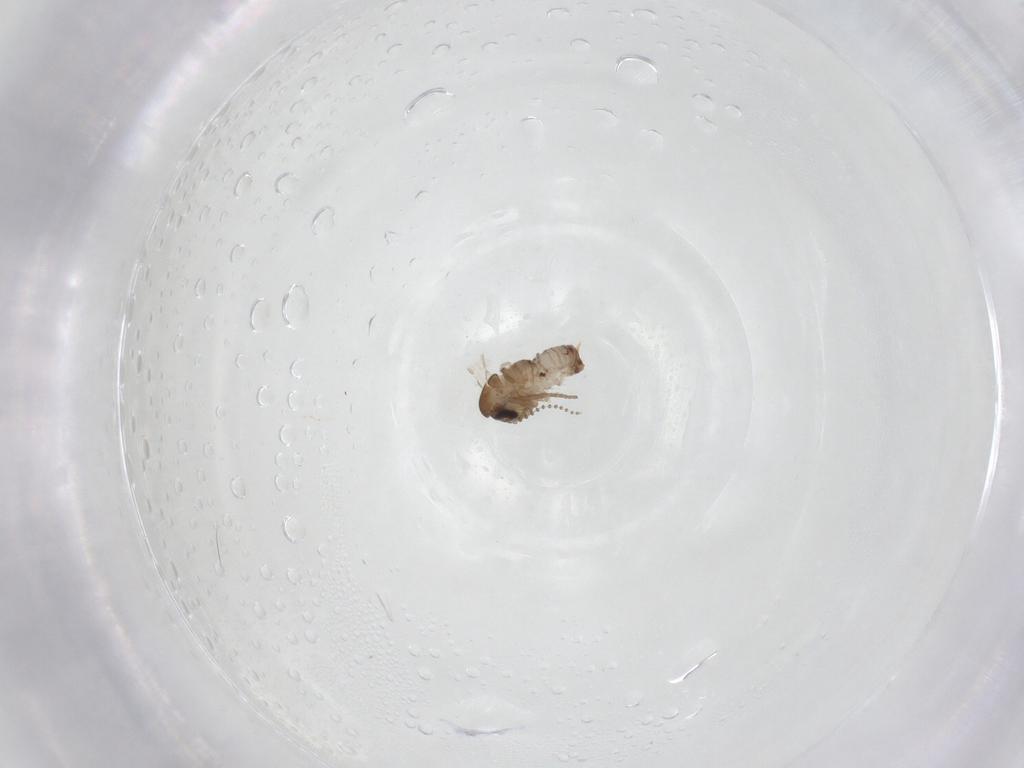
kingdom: Animalia
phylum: Arthropoda
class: Insecta
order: Diptera
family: Psychodidae
